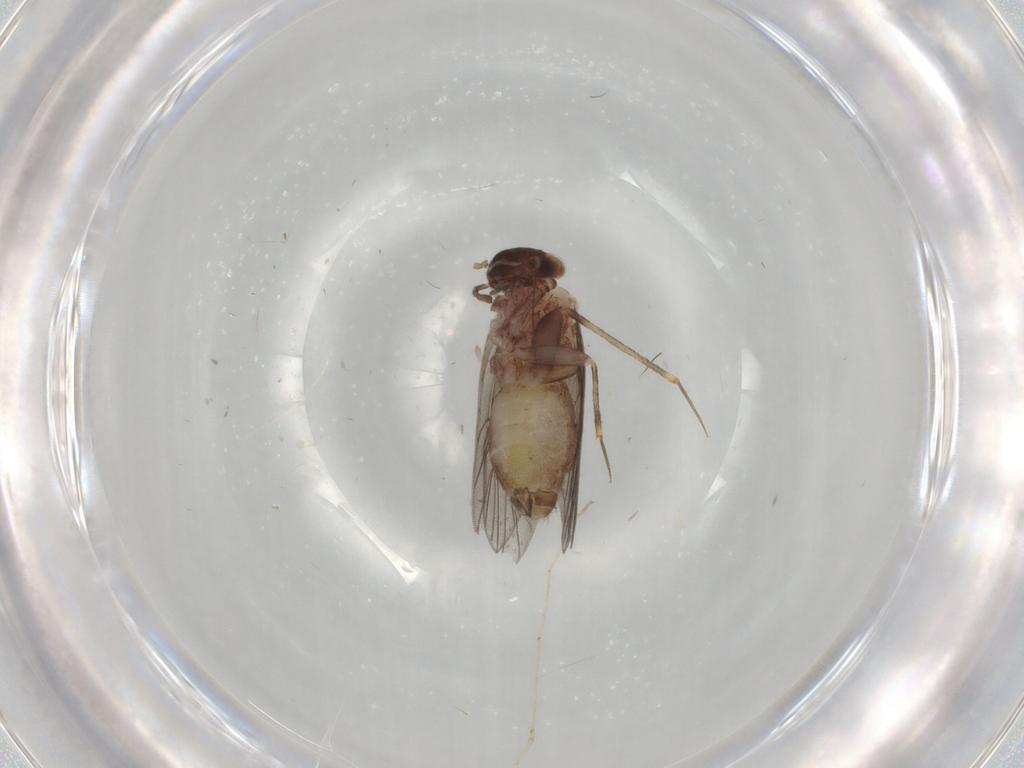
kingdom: Animalia
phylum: Arthropoda
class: Insecta
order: Psocodea
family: Lepidopsocidae
